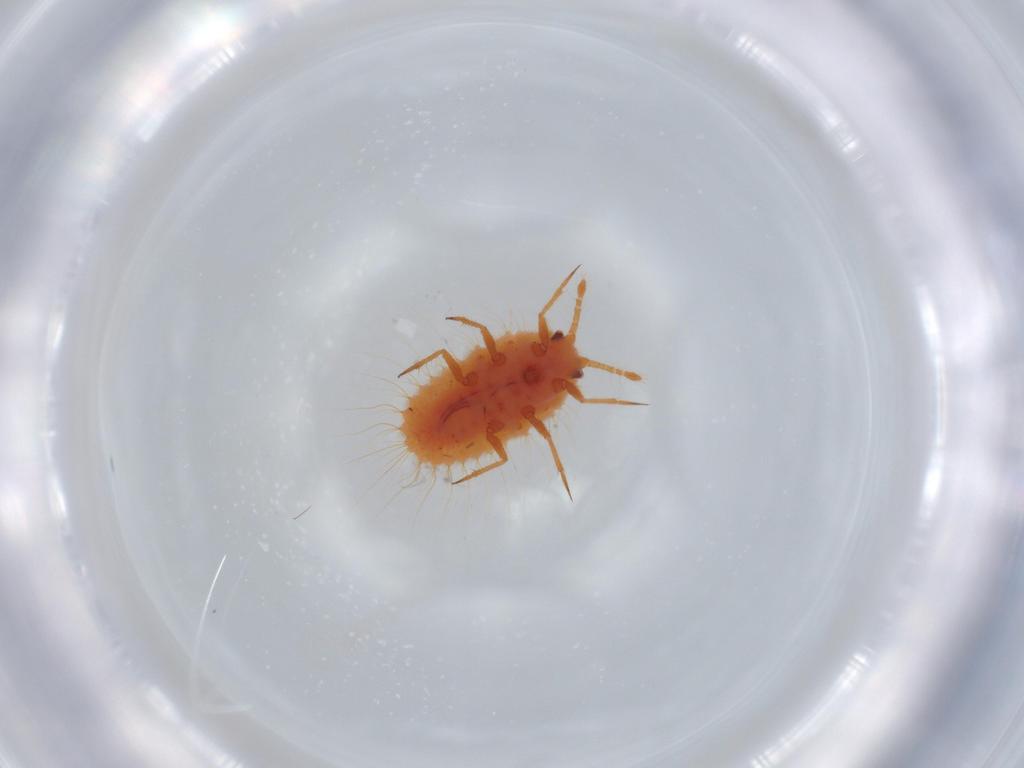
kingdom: Animalia
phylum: Arthropoda
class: Insecta
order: Hemiptera
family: Coccoidea_incertae_sedis
